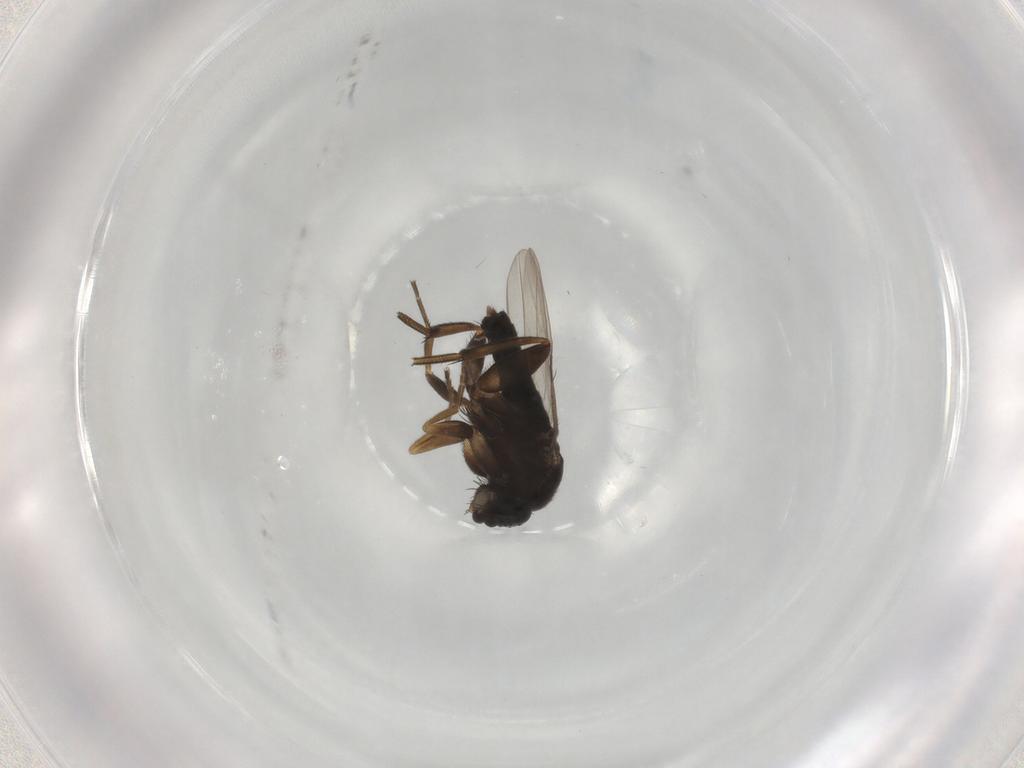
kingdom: Animalia
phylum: Arthropoda
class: Insecta
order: Diptera
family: Phoridae
